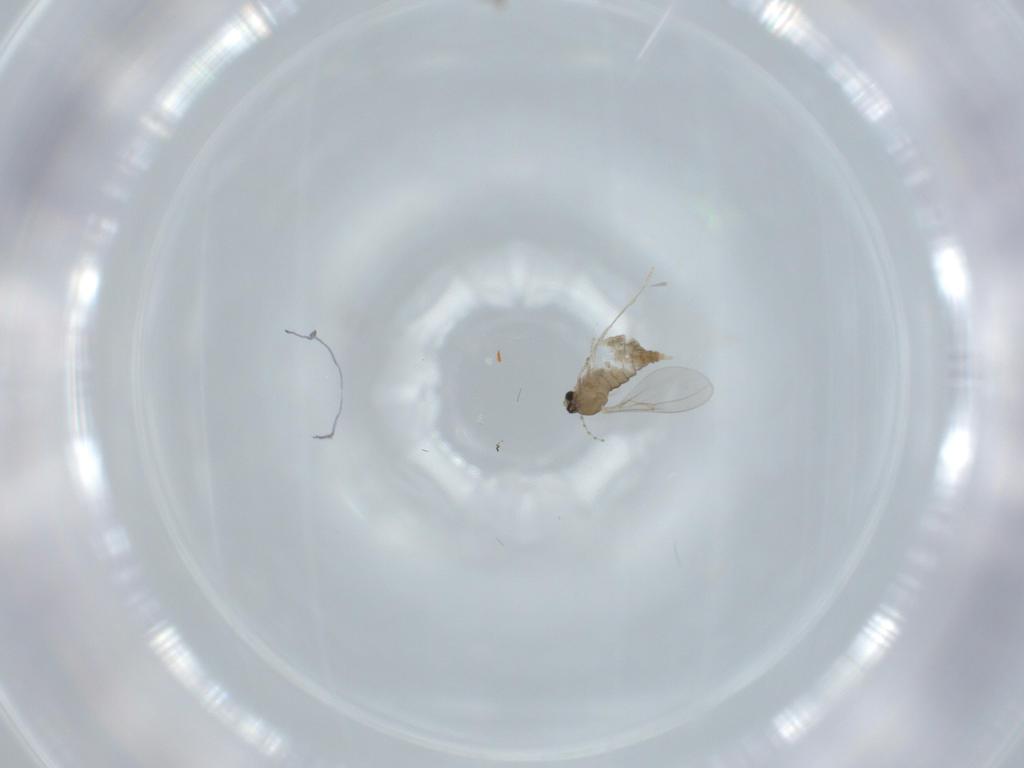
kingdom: Animalia
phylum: Arthropoda
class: Insecta
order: Diptera
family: Cecidomyiidae
